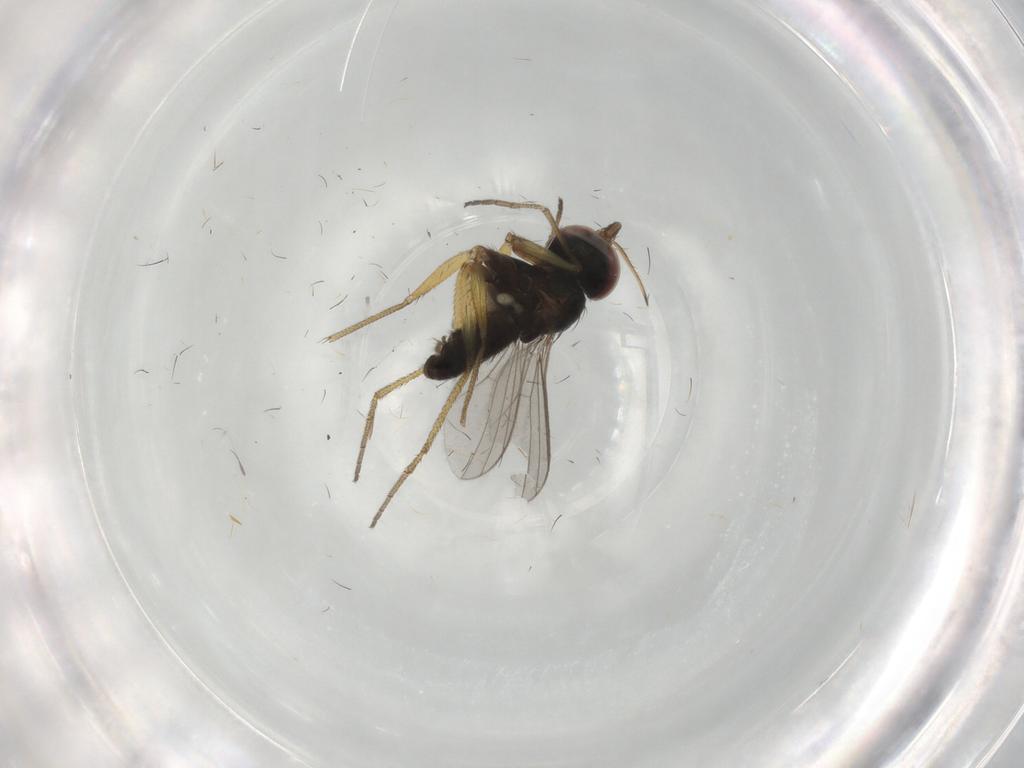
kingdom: Animalia
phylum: Arthropoda
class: Insecta
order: Diptera
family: Dolichopodidae
